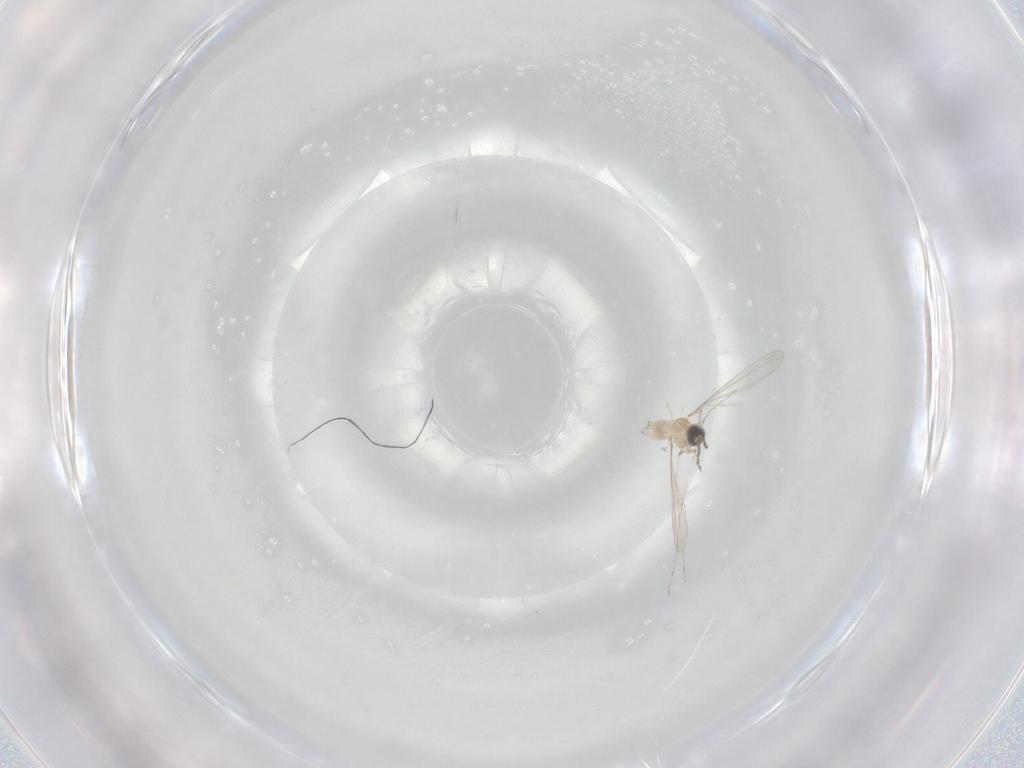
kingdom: Animalia
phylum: Arthropoda
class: Insecta
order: Diptera
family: Cecidomyiidae
